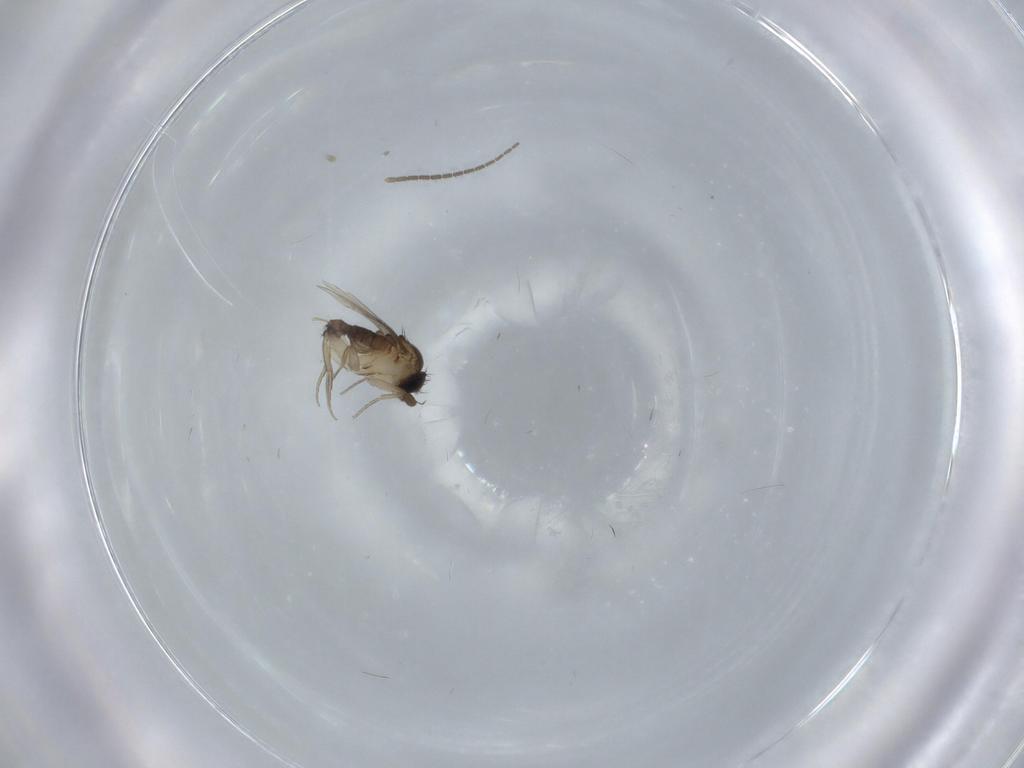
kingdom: Animalia
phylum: Arthropoda
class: Insecta
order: Diptera
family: Phoridae
